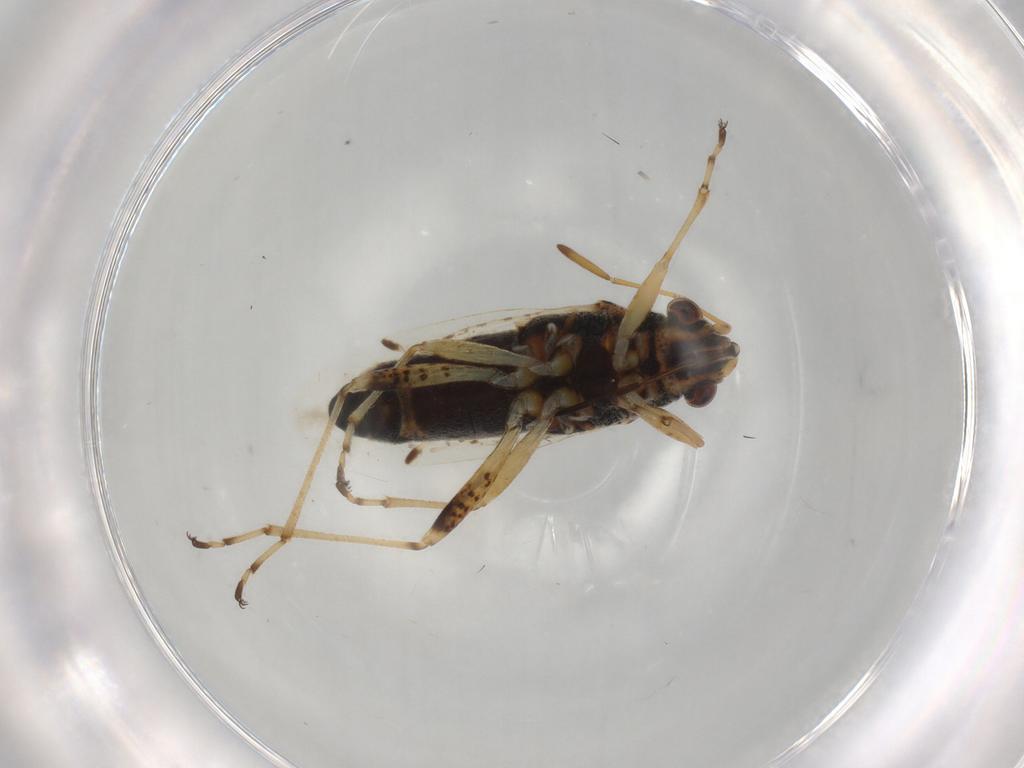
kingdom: Animalia
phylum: Arthropoda
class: Insecta
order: Hemiptera
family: Lygaeidae
